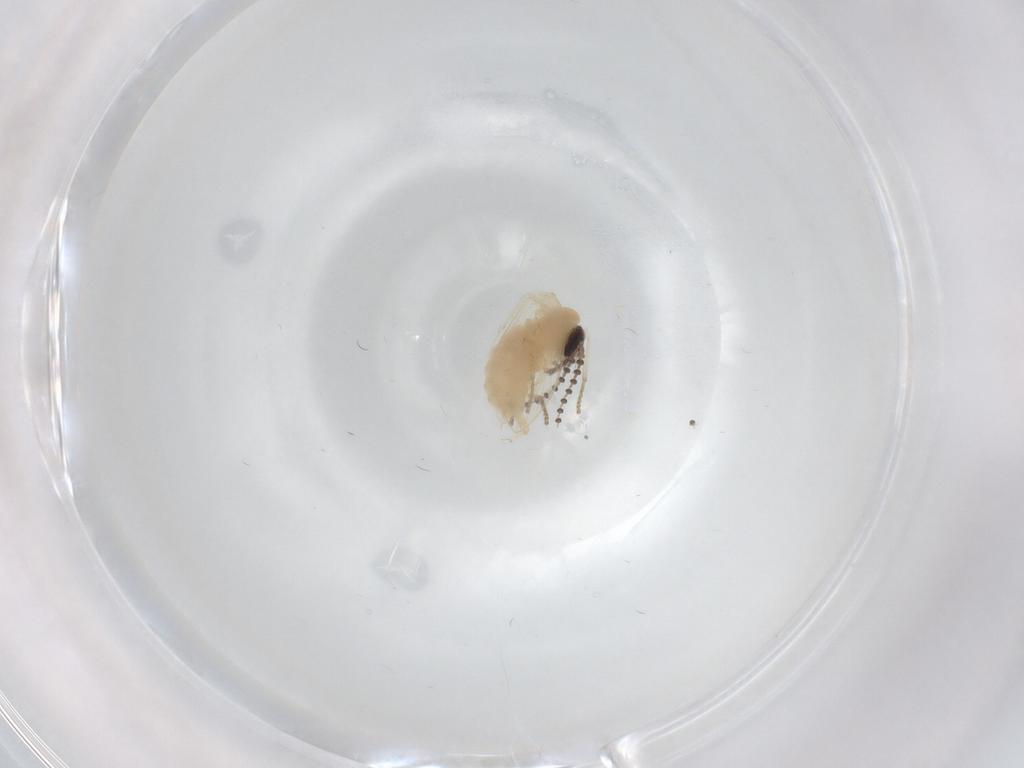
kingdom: Animalia
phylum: Arthropoda
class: Insecta
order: Diptera
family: Psychodidae
